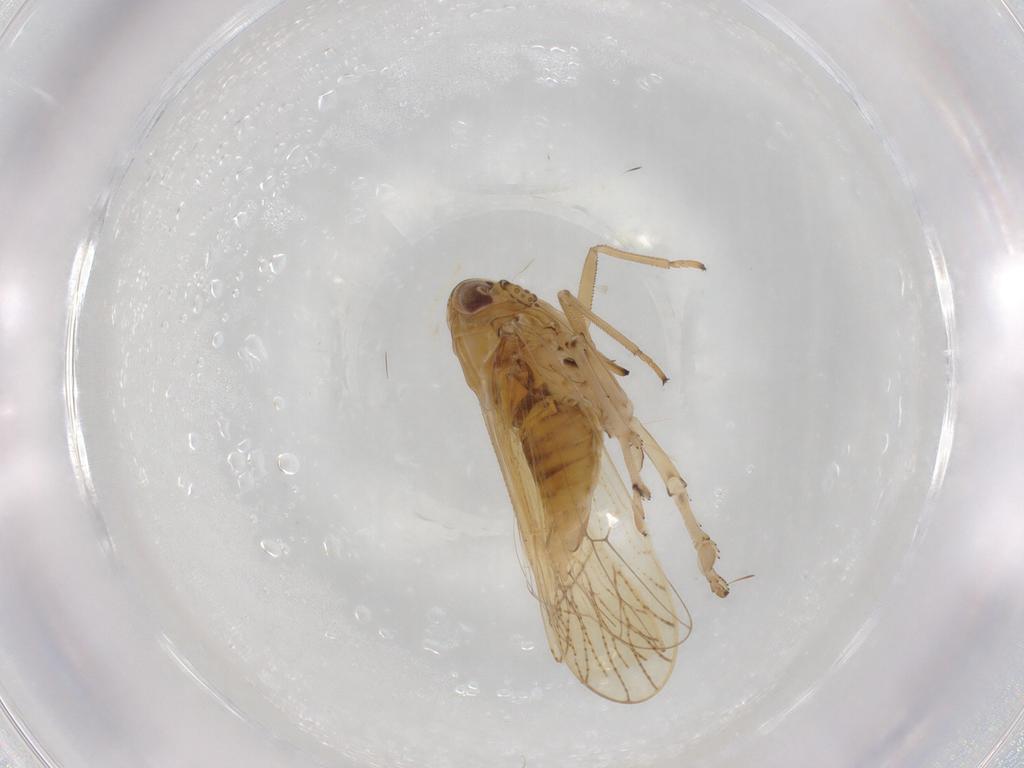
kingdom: Animalia
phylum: Arthropoda
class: Insecta
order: Hemiptera
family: Delphacidae
